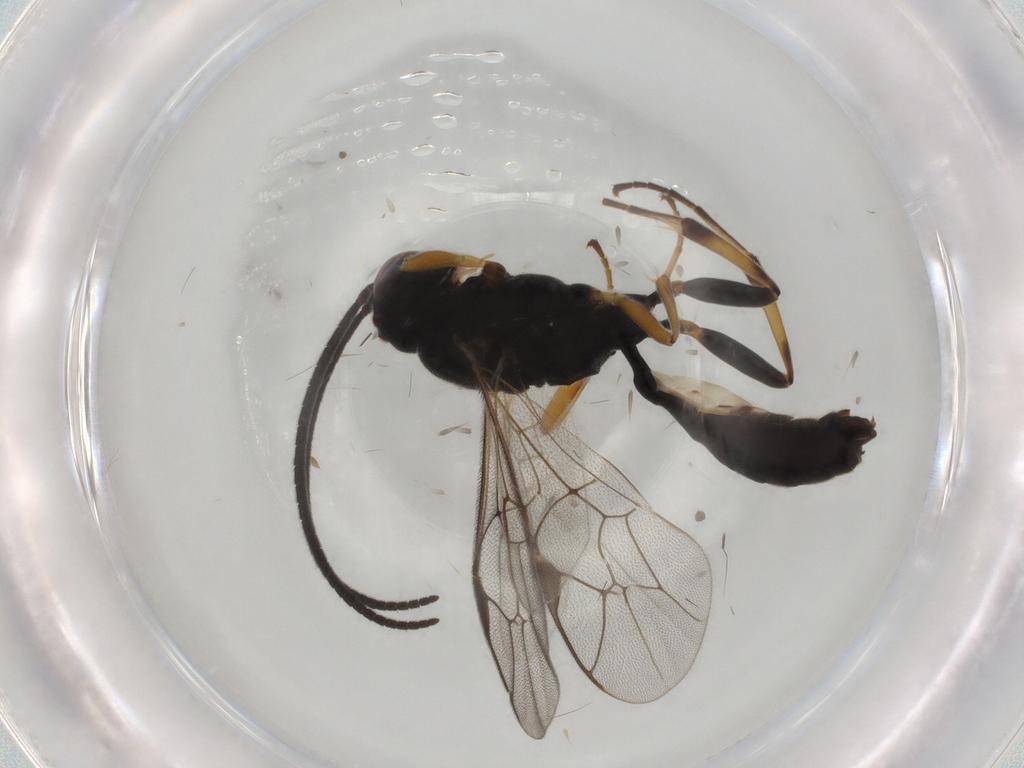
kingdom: Animalia
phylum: Arthropoda
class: Insecta
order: Hymenoptera
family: Ichneumonidae
